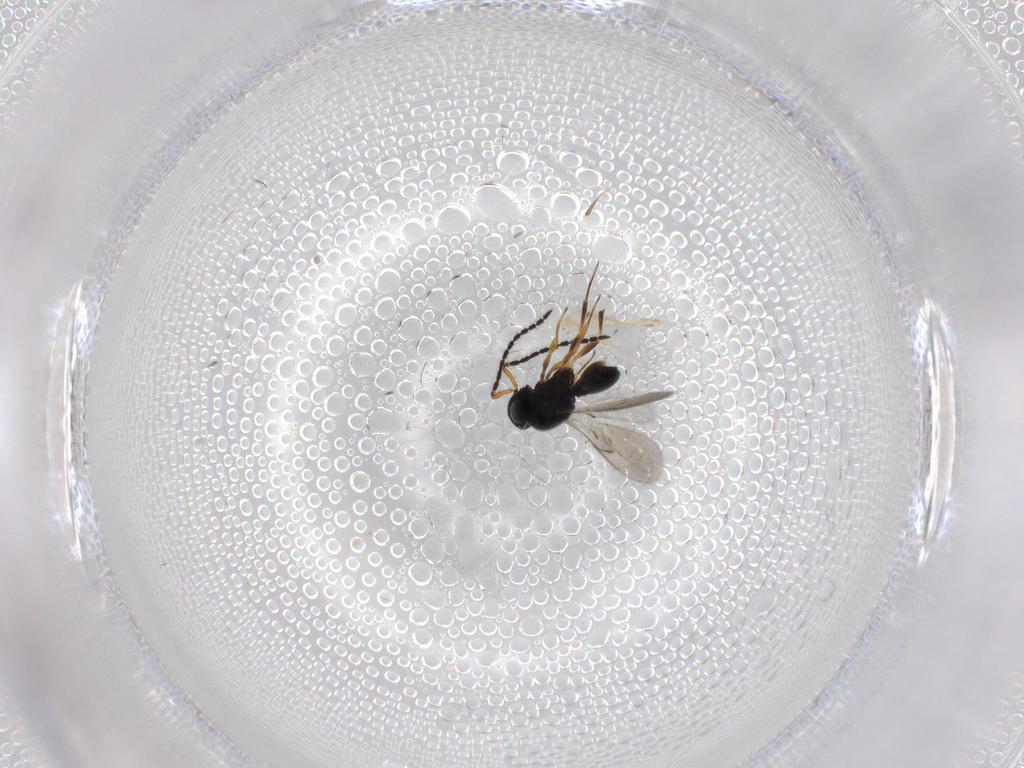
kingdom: Animalia
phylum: Arthropoda
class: Insecta
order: Hymenoptera
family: Scelionidae
